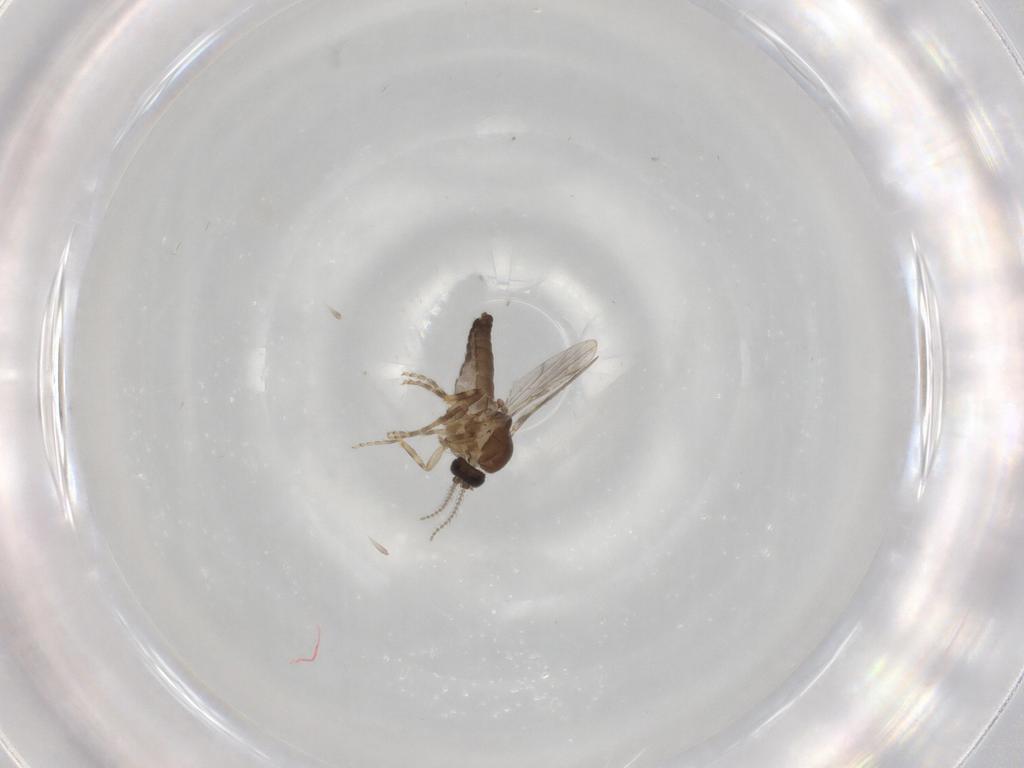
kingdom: Animalia
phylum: Arthropoda
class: Insecta
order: Diptera
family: Ceratopogonidae
